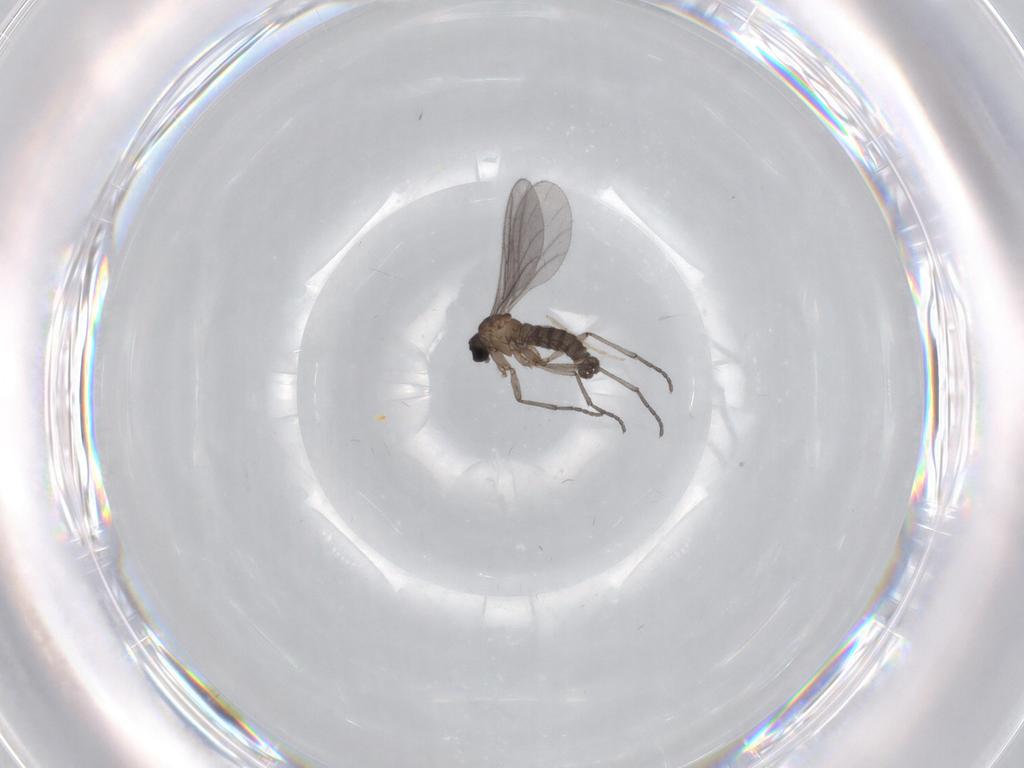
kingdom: Animalia
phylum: Arthropoda
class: Insecta
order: Diptera
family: Sciaridae
